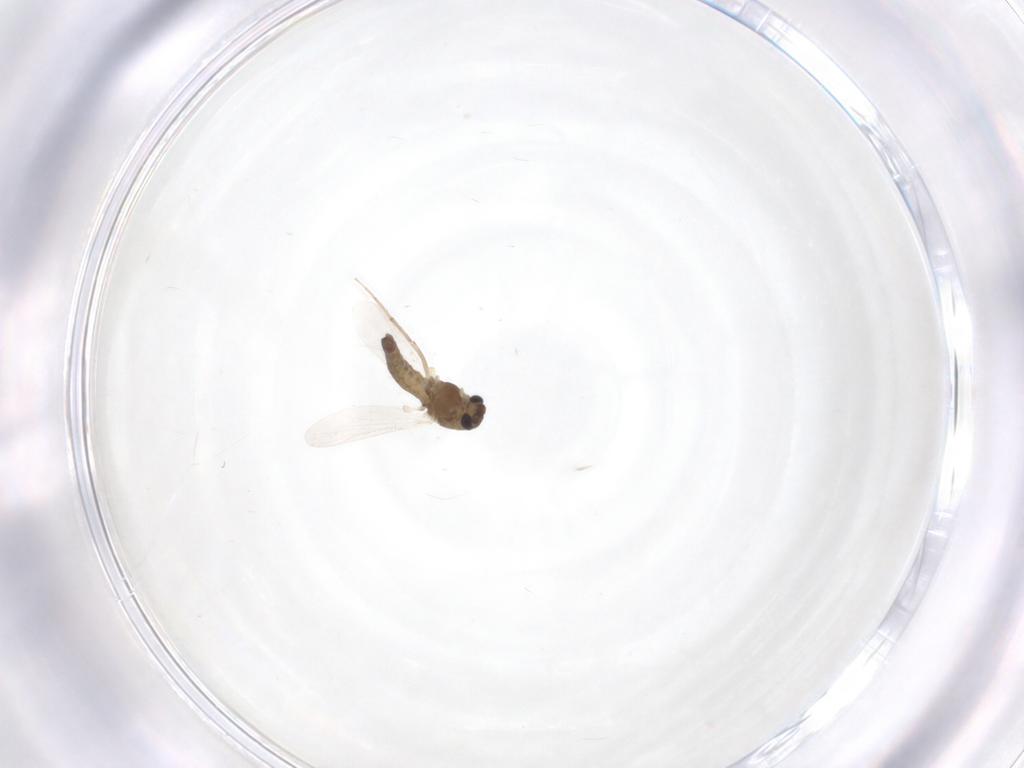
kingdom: Animalia
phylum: Arthropoda
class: Insecta
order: Diptera
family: Chironomidae
